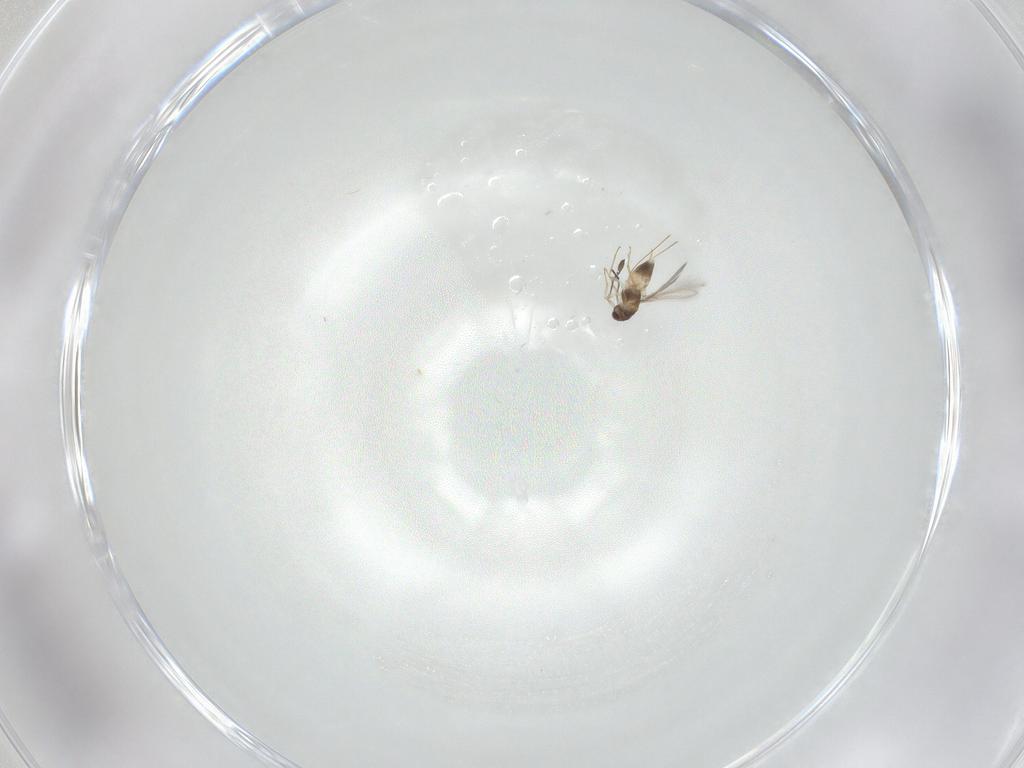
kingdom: Animalia
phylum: Arthropoda
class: Insecta
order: Hymenoptera
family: Mymaridae
